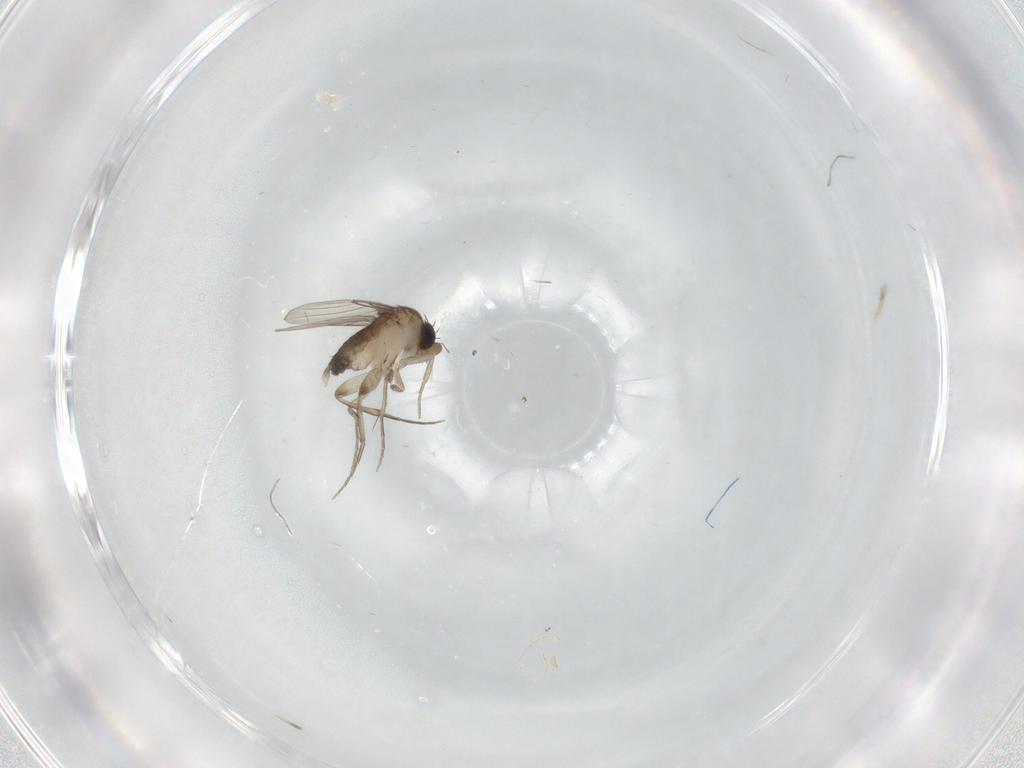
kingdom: Animalia
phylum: Arthropoda
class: Insecta
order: Diptera
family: Phoridae
